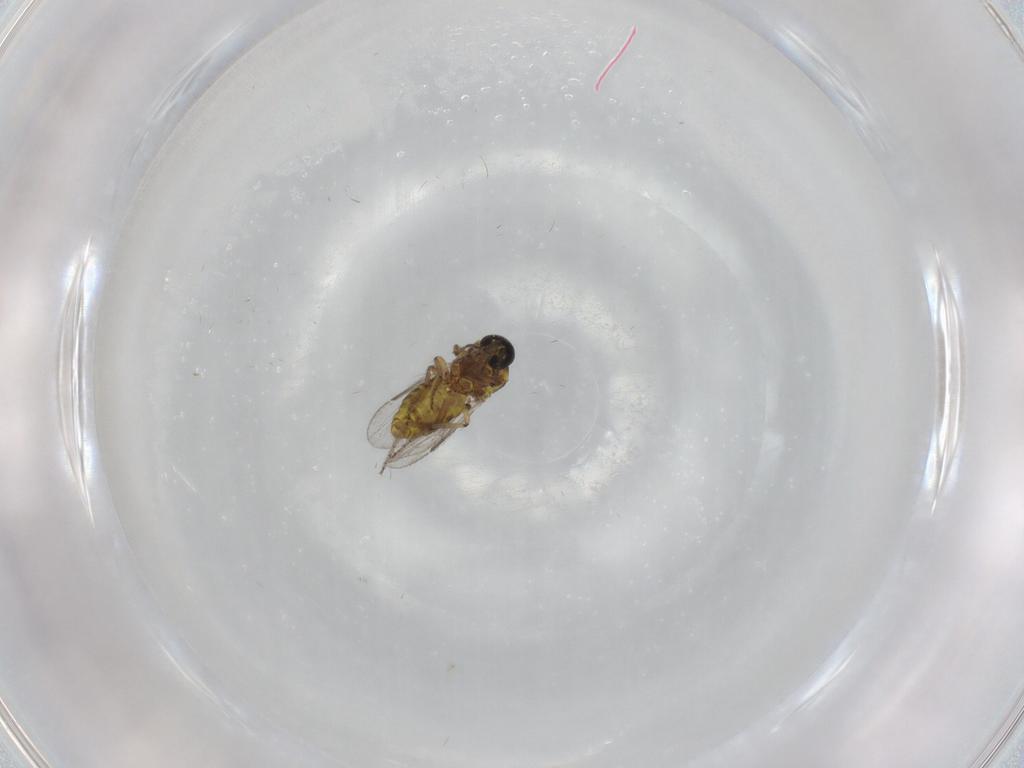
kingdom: Animalia
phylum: Arthropoda
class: Insecta
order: Diptera
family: Ceratopogonidae
